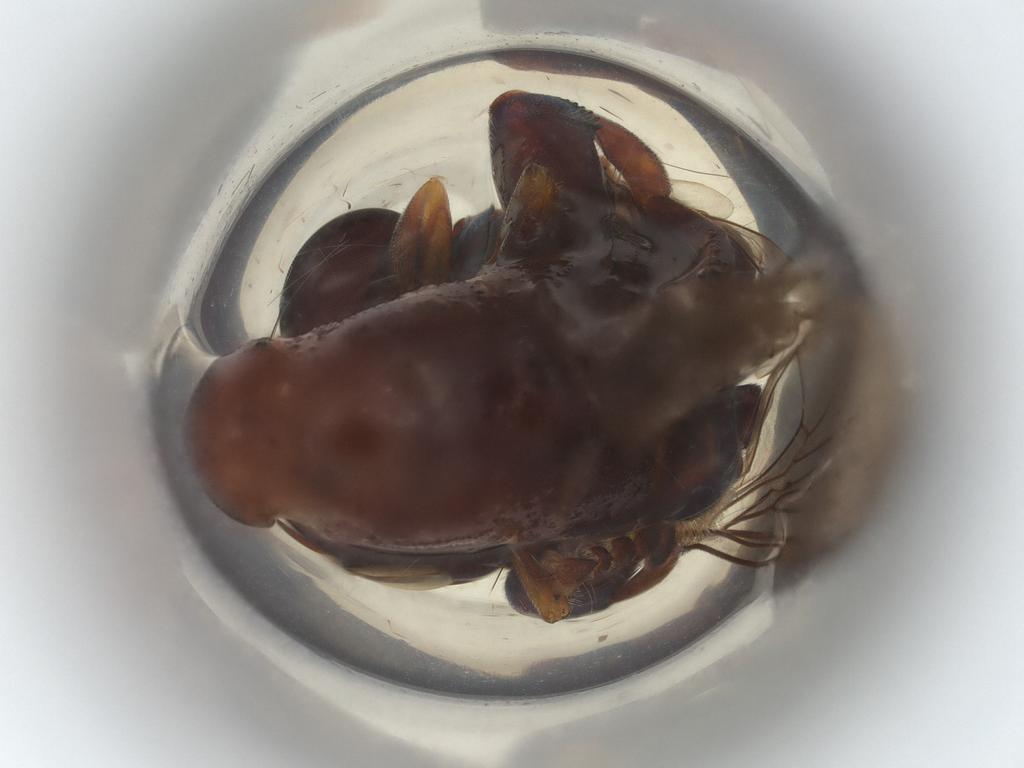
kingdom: Animalia
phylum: Arthropoda
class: Insecta
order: Diptera
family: Syrphidae
